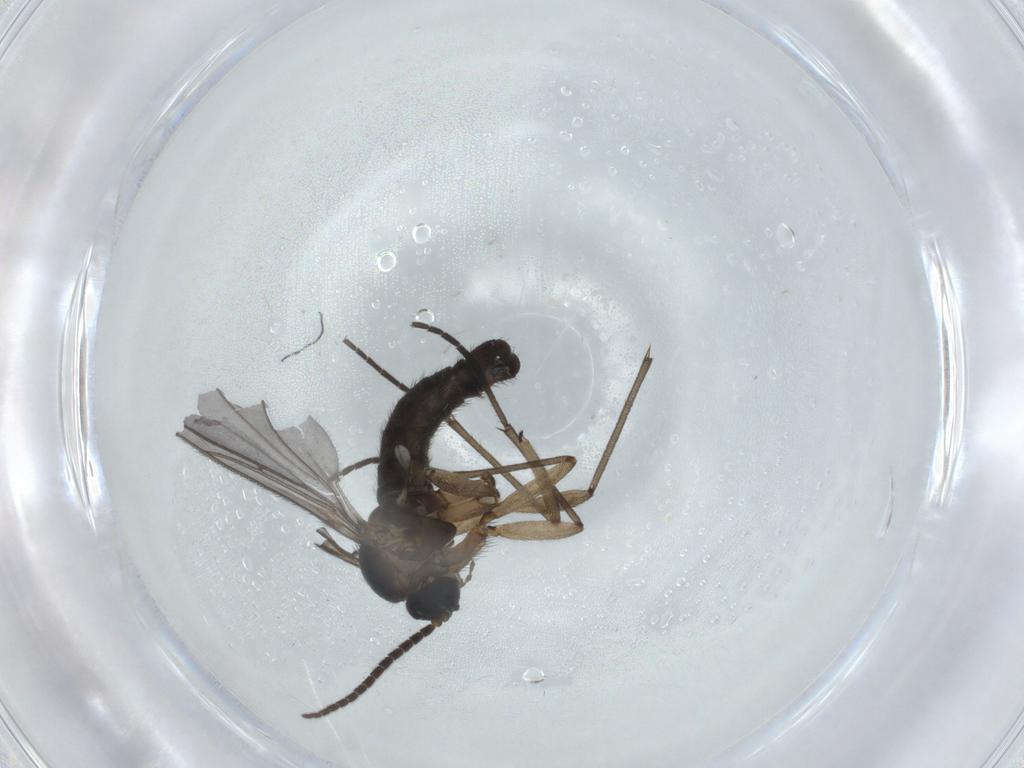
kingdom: Animalia
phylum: Arthropoda
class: Insecta
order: Diptera
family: Sciaridae
